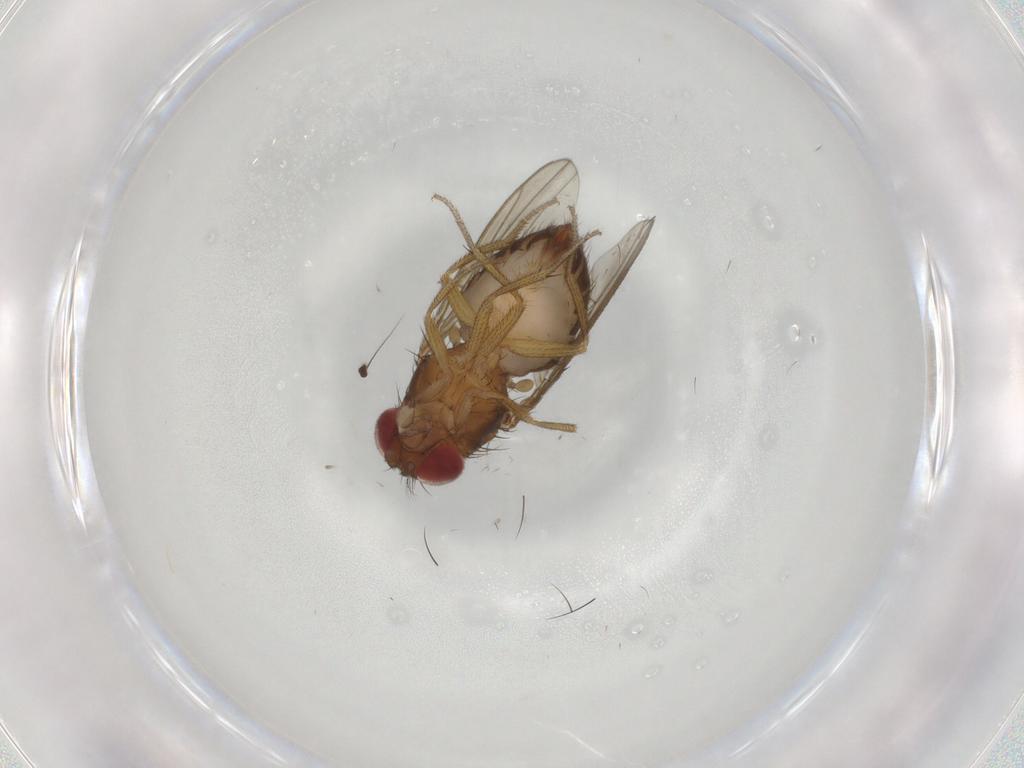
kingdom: Animalia
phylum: Arthropoda
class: Insecta
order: Diptera
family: Drosophilidae
